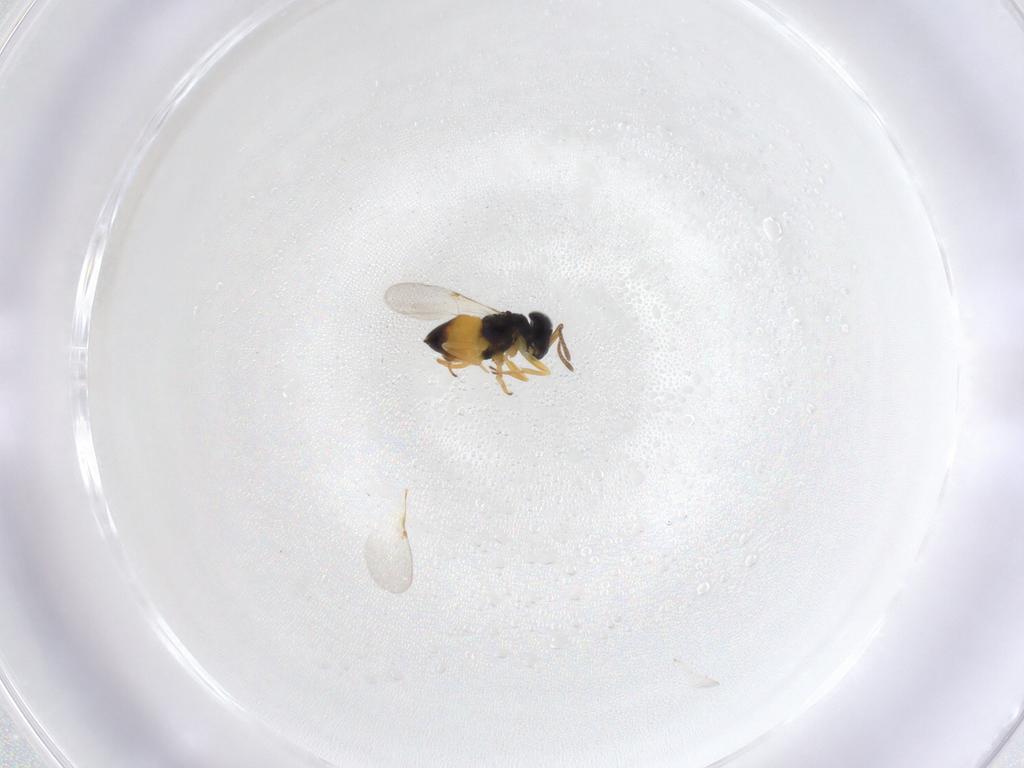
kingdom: Animalia
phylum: Arthropoda
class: Insecta
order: Hymenoptera
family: Encyrtidae
